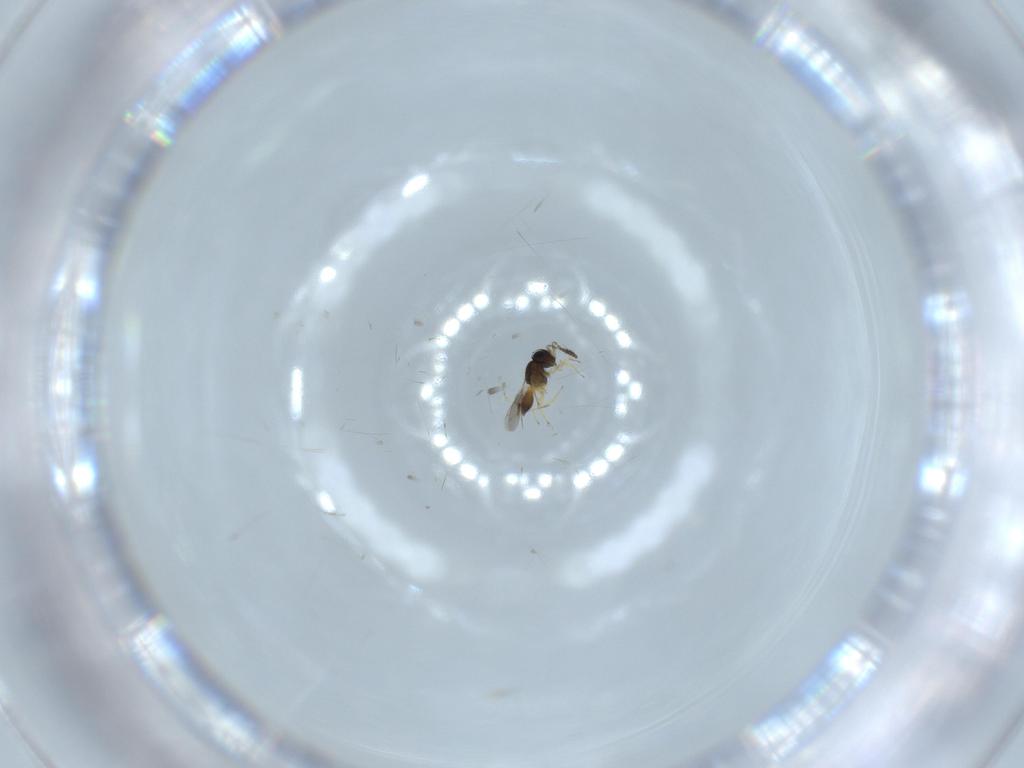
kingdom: Animalia
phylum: Arthropoda
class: Insecta
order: Hymenoptera
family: Scelionidae
